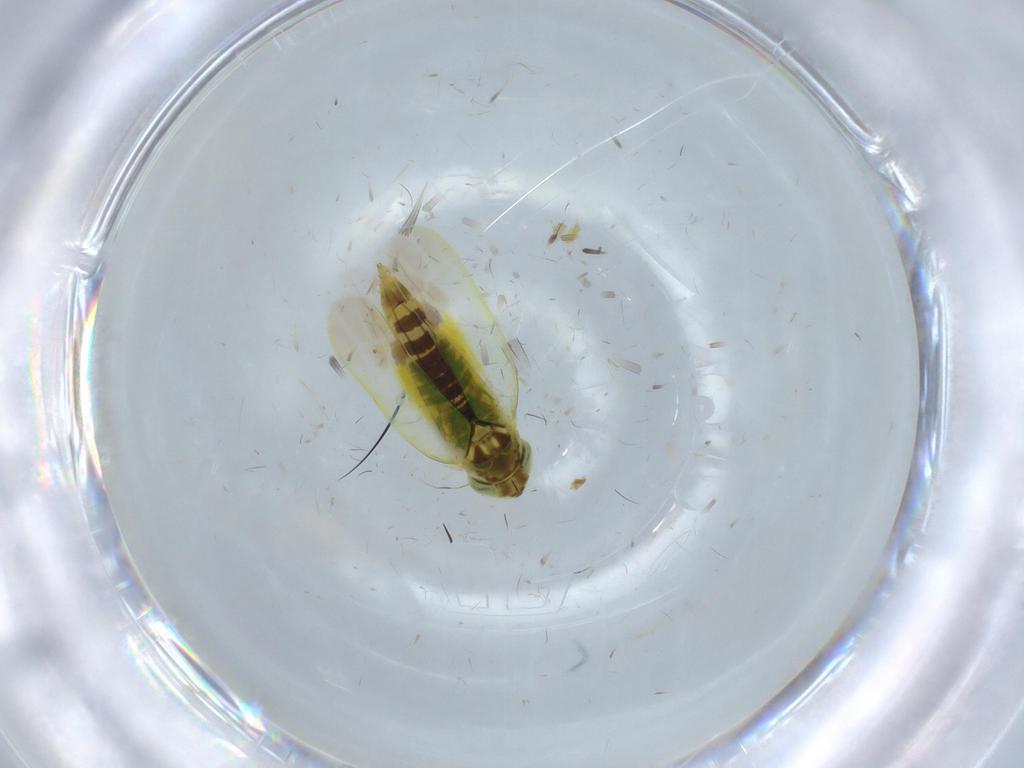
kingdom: Animalia
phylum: Arthropoda
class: Insecta
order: Hemiptera
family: Cicadellidae
